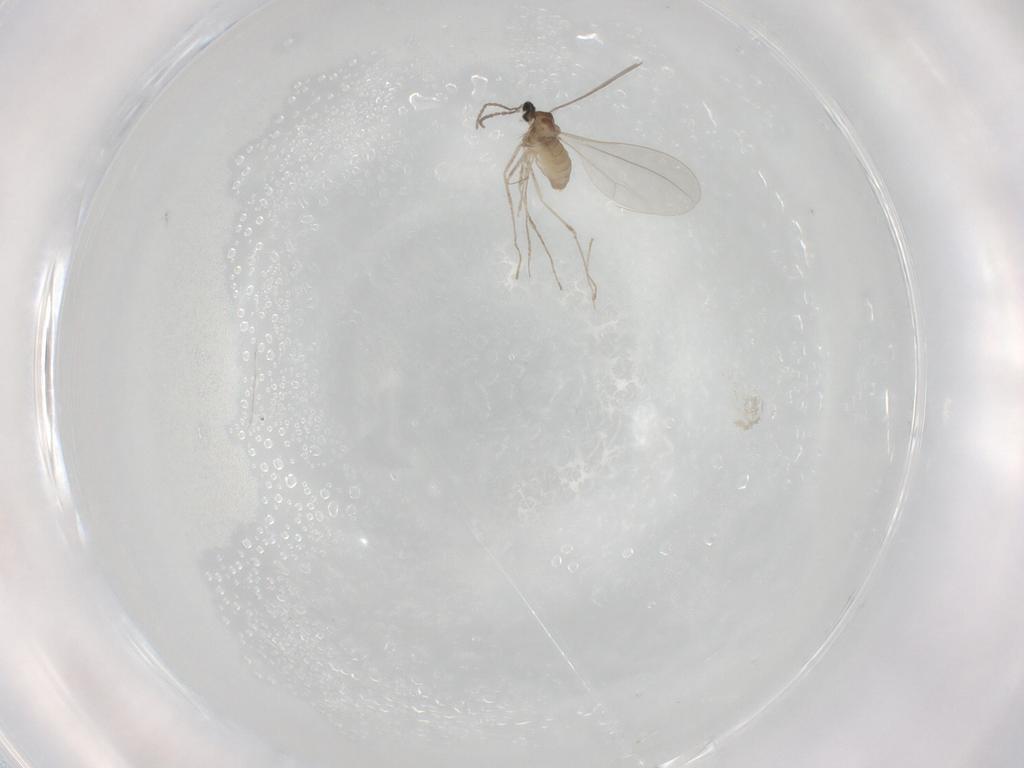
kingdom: Animalia
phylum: Arthropoda
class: Insecta
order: Diptera
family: Cecidomyiidae
